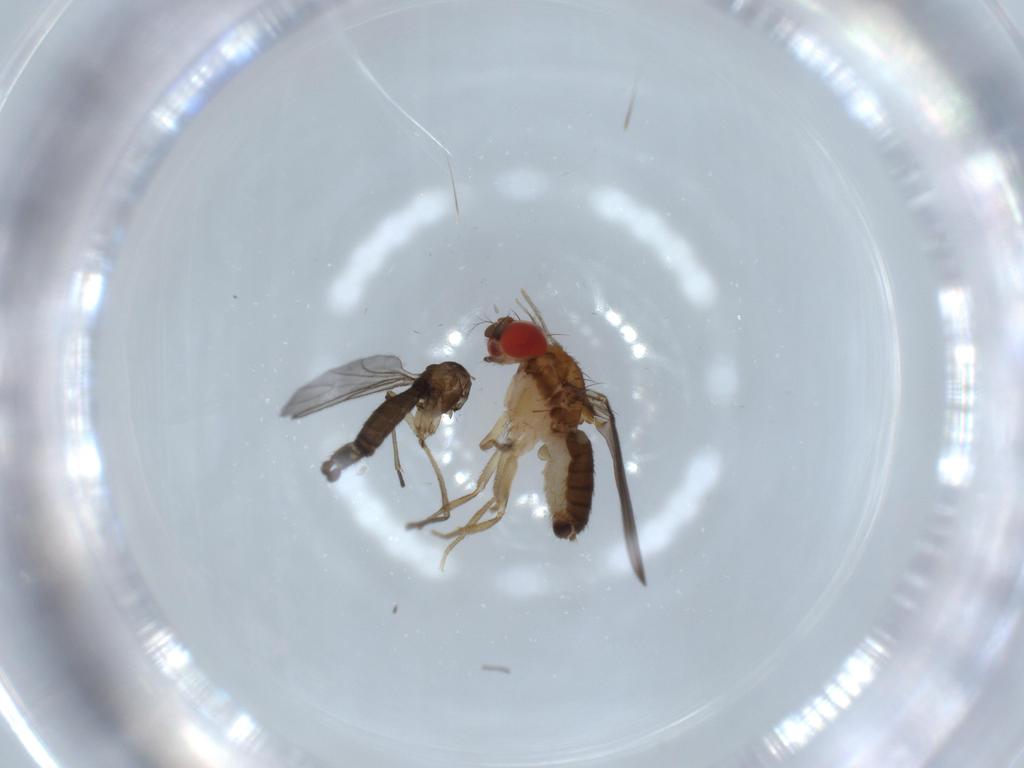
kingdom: Animalia
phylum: Arthropoda
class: Insecta
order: Diptera
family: Drosophilidae
